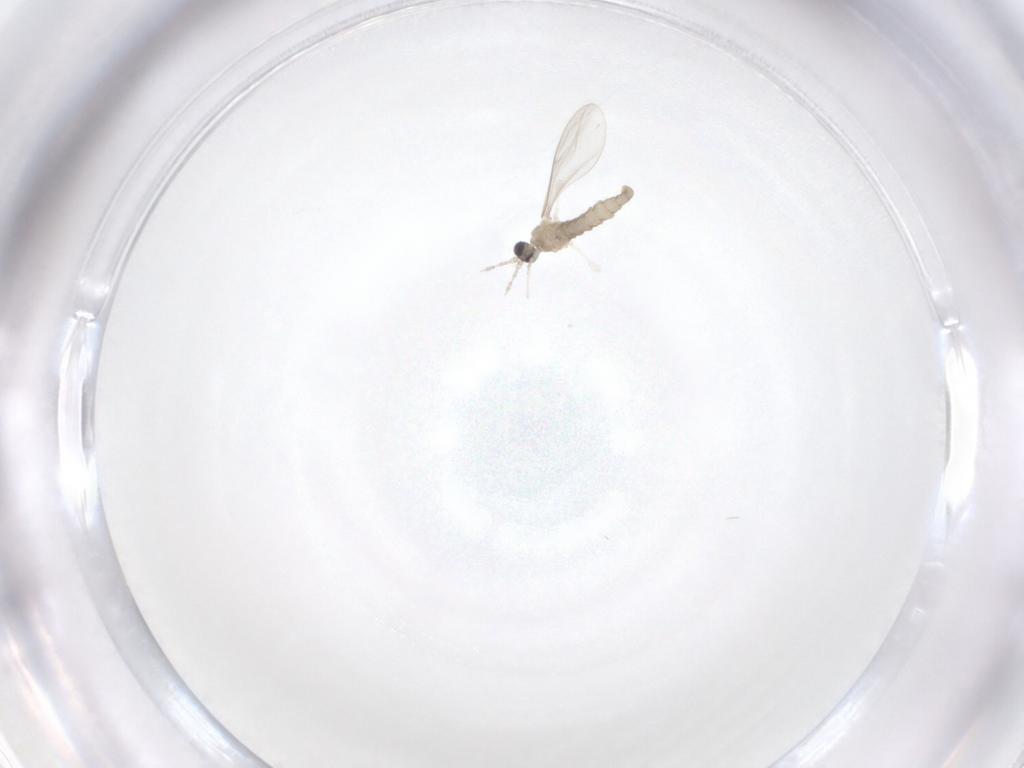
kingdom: Animalia
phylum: Arthropoda
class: Insecta
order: Diptera
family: Cecidomyiidae
